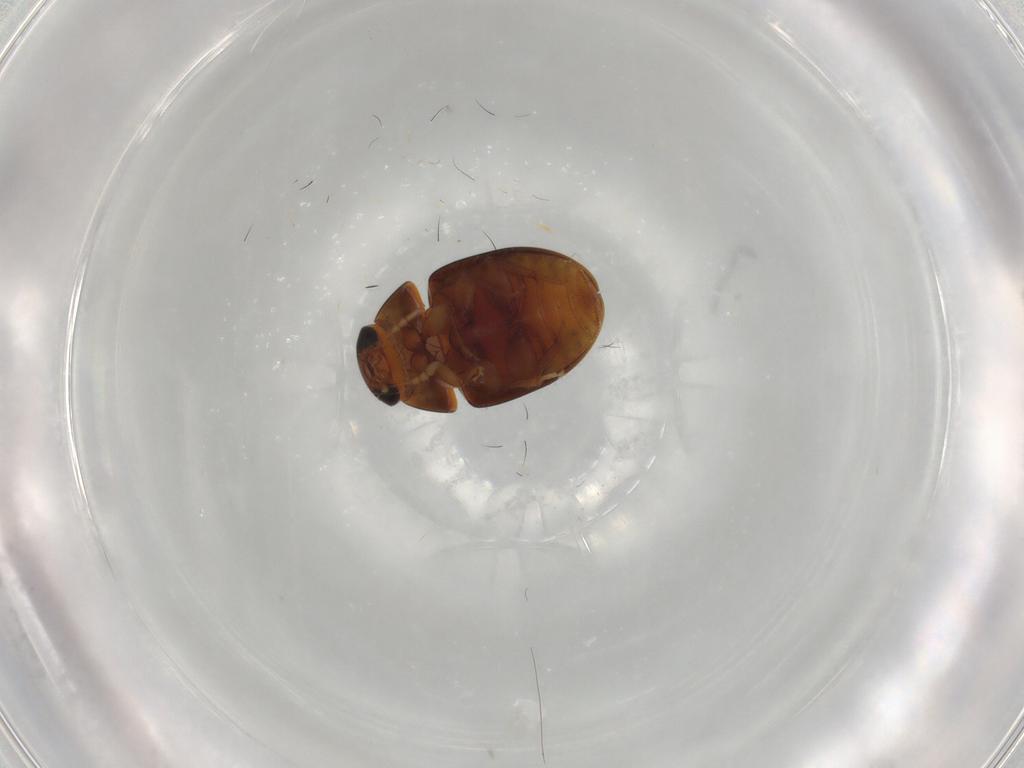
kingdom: Animalia
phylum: Arthropoda
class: Insecta
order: Coleoptera
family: Phalacridae
